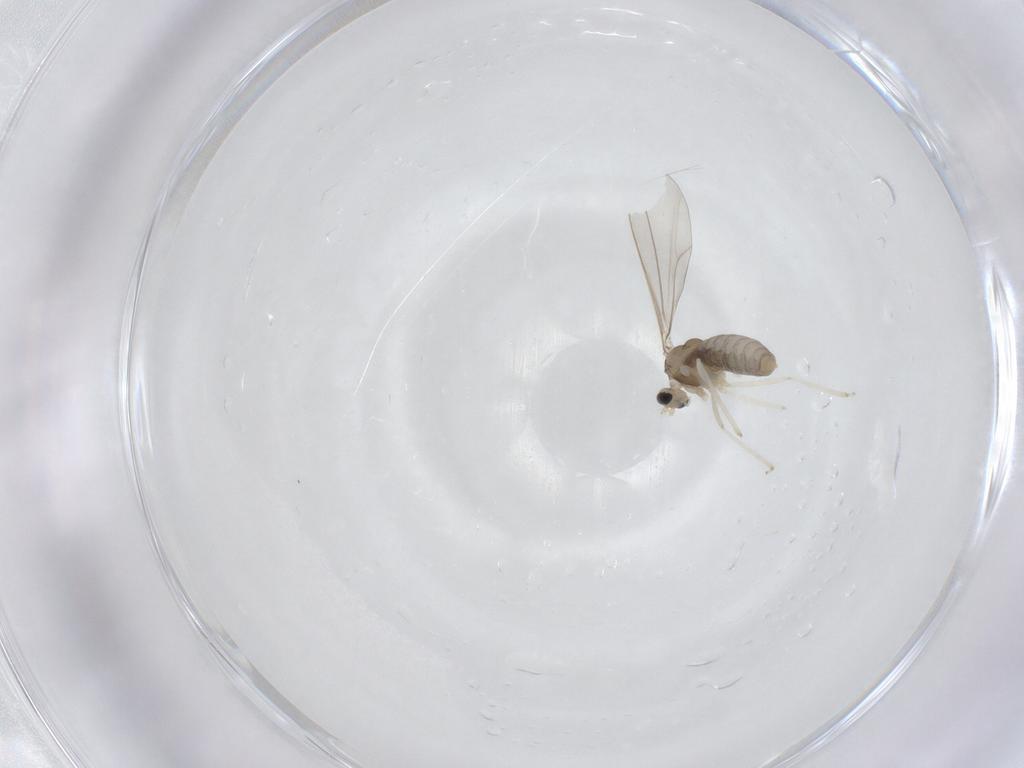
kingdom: Animalia
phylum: Arthropoda
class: Insecta
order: Diptera
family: Cecidomyiidae
